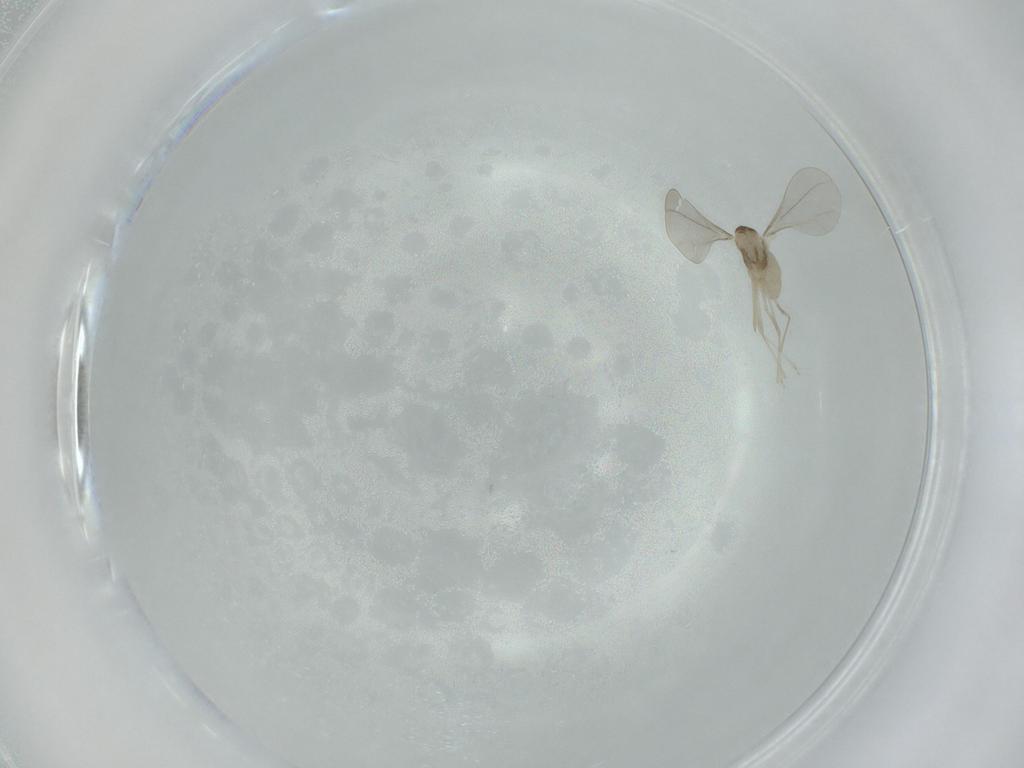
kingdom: Animalia
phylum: Arthropoda
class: Insecta
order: Diptera
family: Cecidomyiidae
